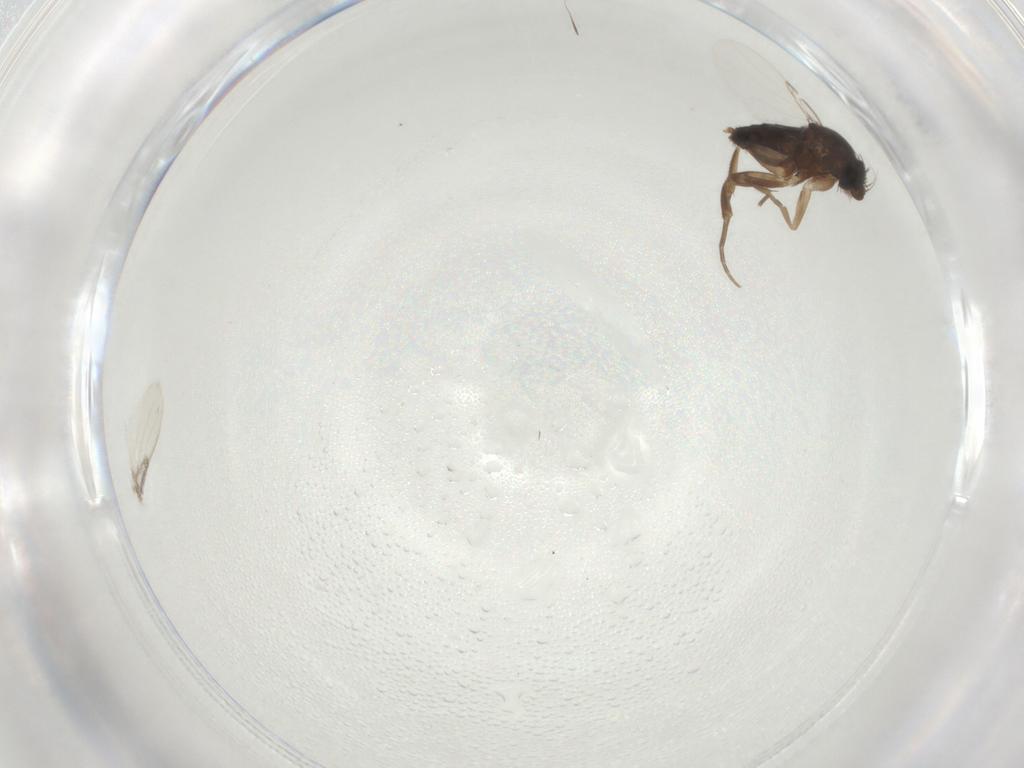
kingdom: Animalia
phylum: Arthropoda
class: Insecta
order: Diptera
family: Phoridae
